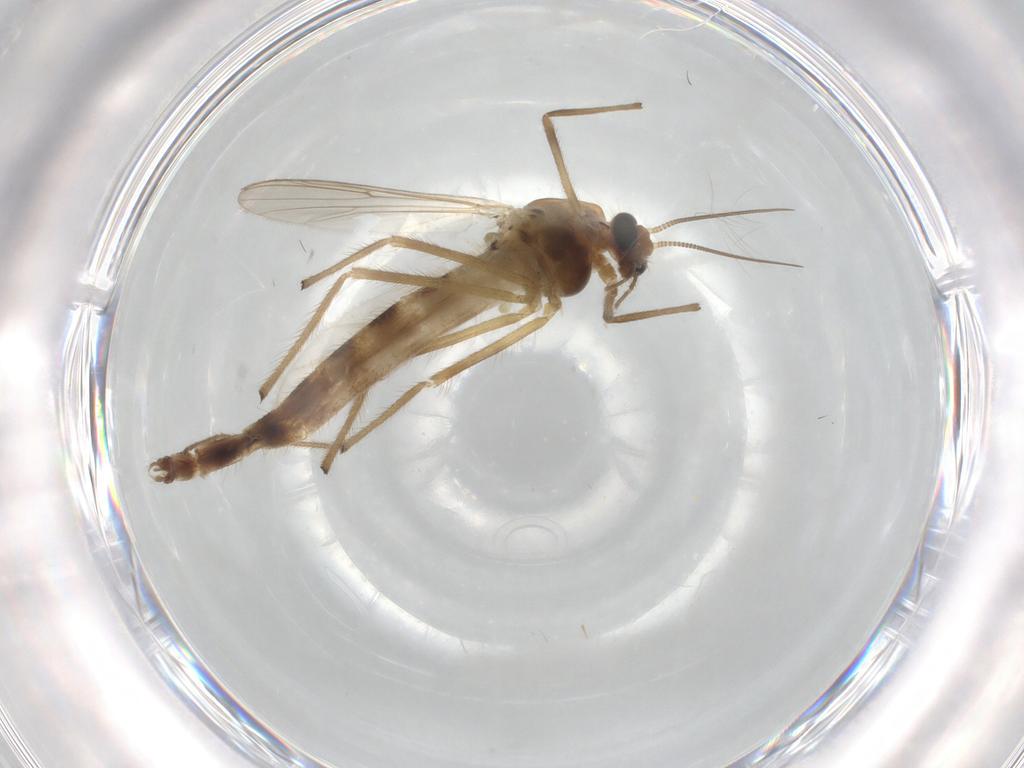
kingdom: Animalia
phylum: Arthropoda
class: Insecta
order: Diptera
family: Chironomidae
